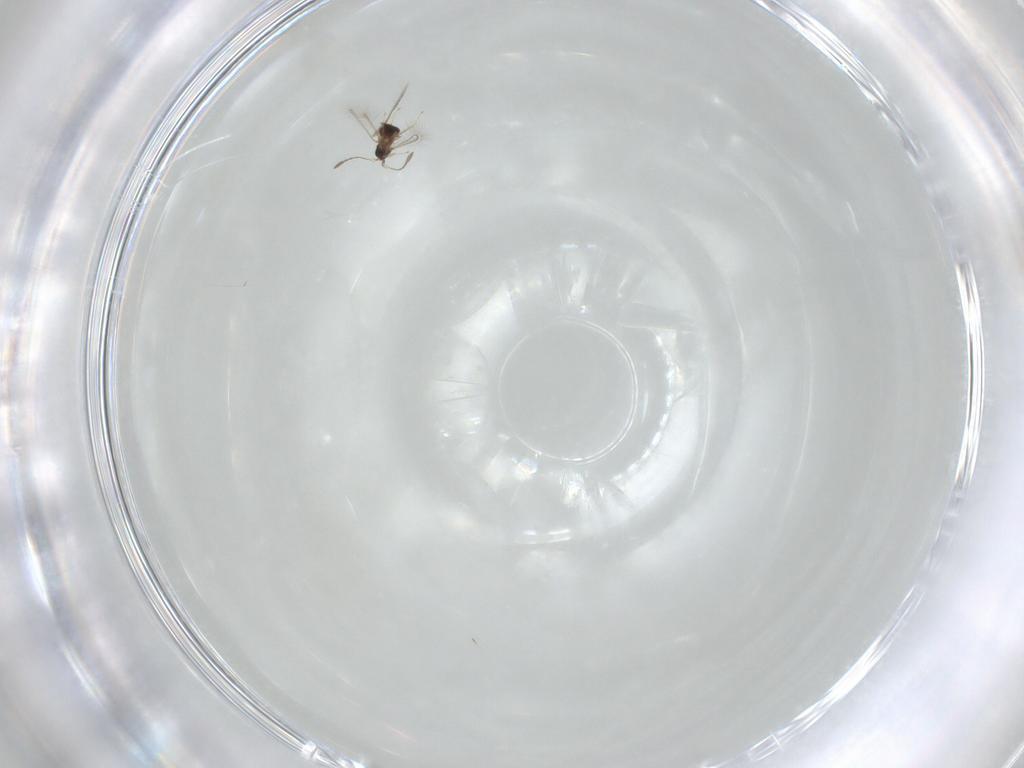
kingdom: Animalia
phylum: Arthropoda
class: Insecta
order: Hymenoptera
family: Mymaridae
